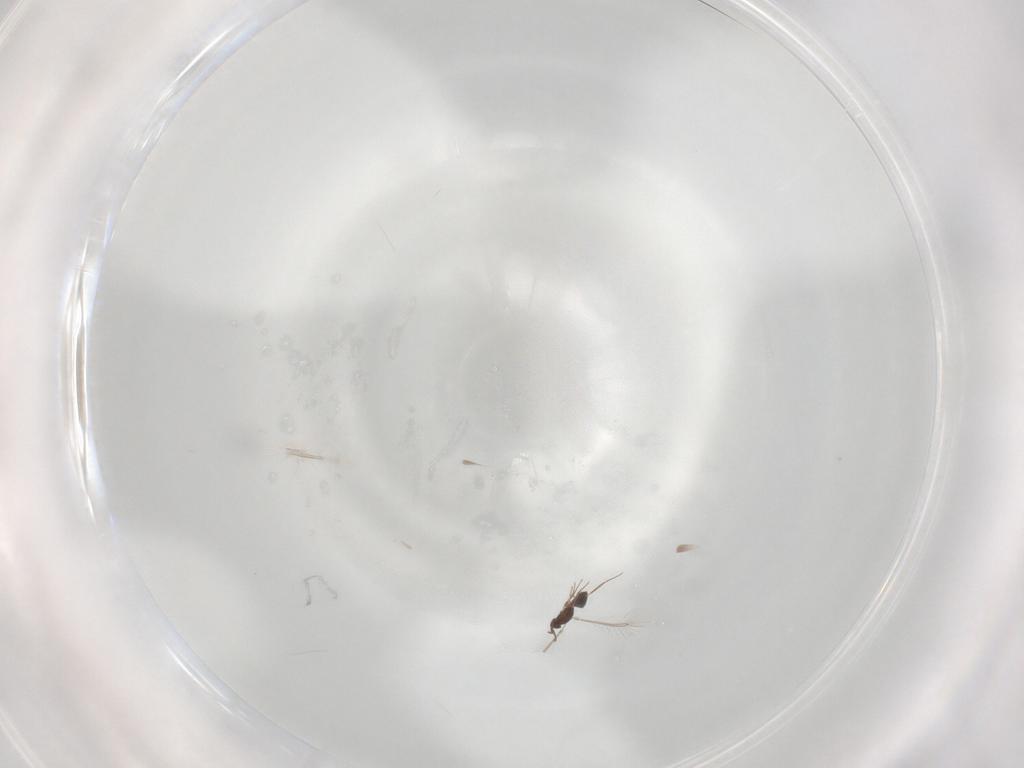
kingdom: Animalia
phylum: Arthropoda
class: Insecta
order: Hymenoptera
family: Mymaridae
